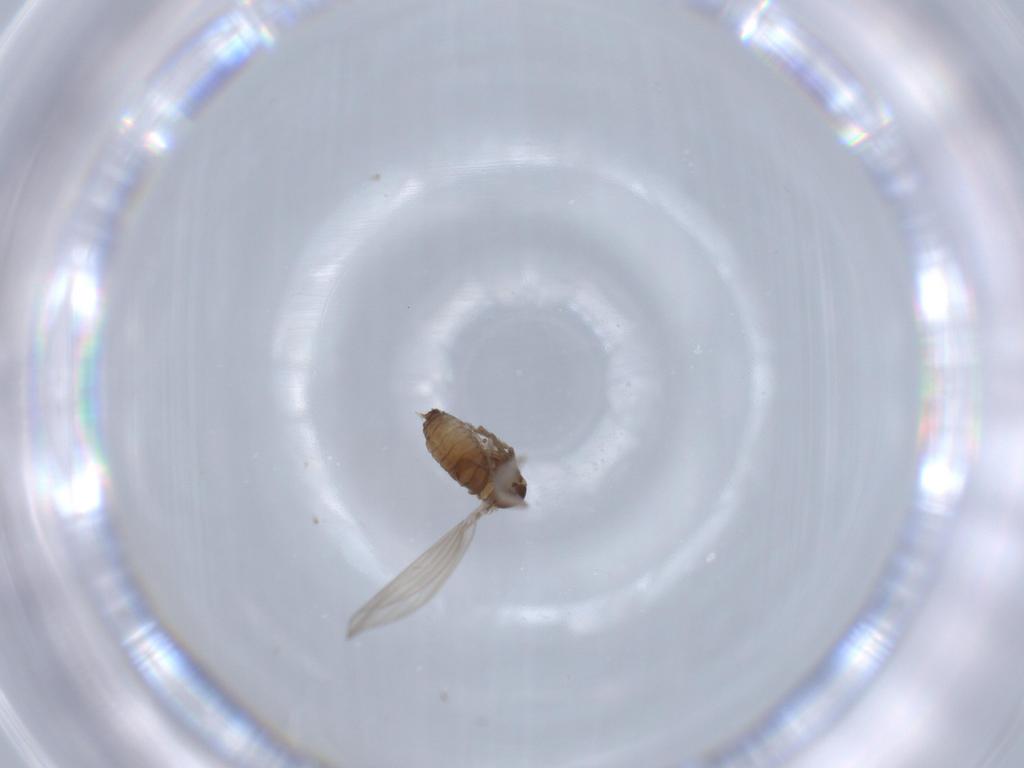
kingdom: Animalia
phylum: Arthropoda
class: Insecta
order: Diptera
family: Psychodidae
